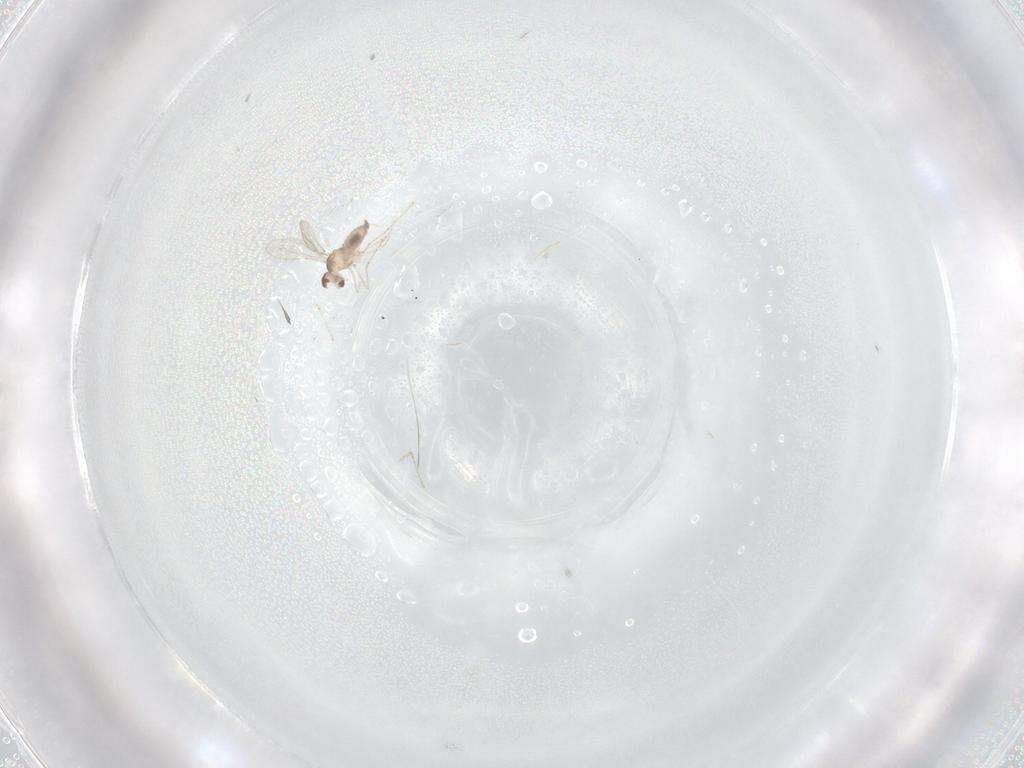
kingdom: Animalia
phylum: Arthropoda
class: Insecta
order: Diptera
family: Cecidomyiidae
